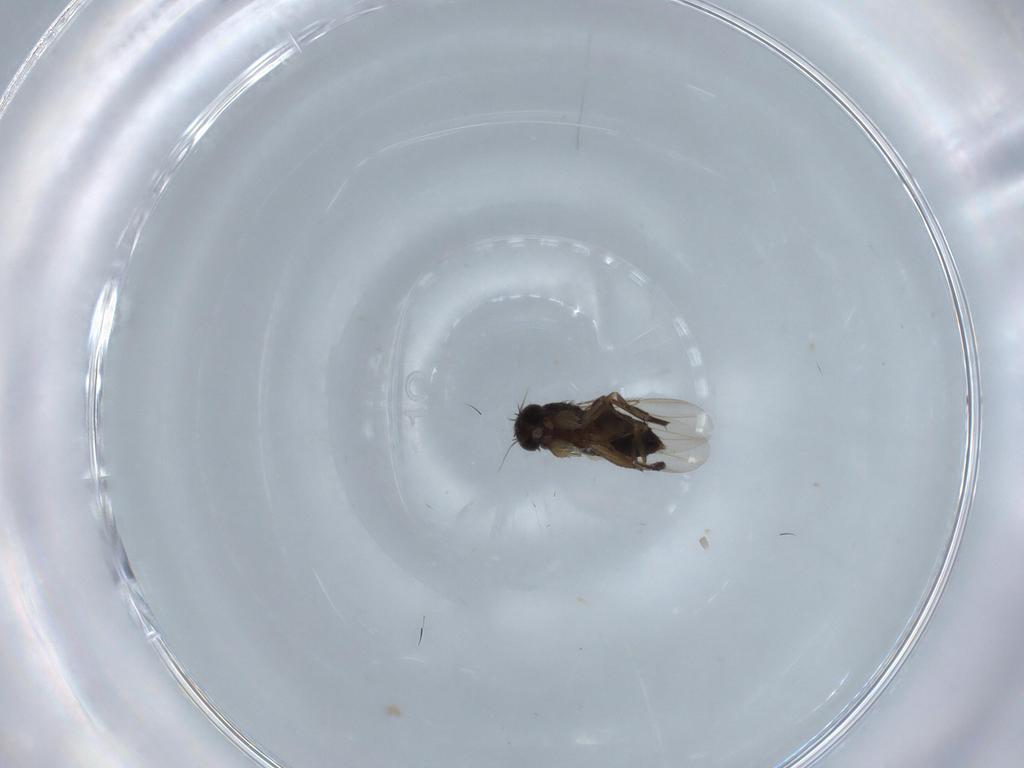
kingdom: Animalia
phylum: Arthropoda
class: Insecta
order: Diptera
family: Phoridae
